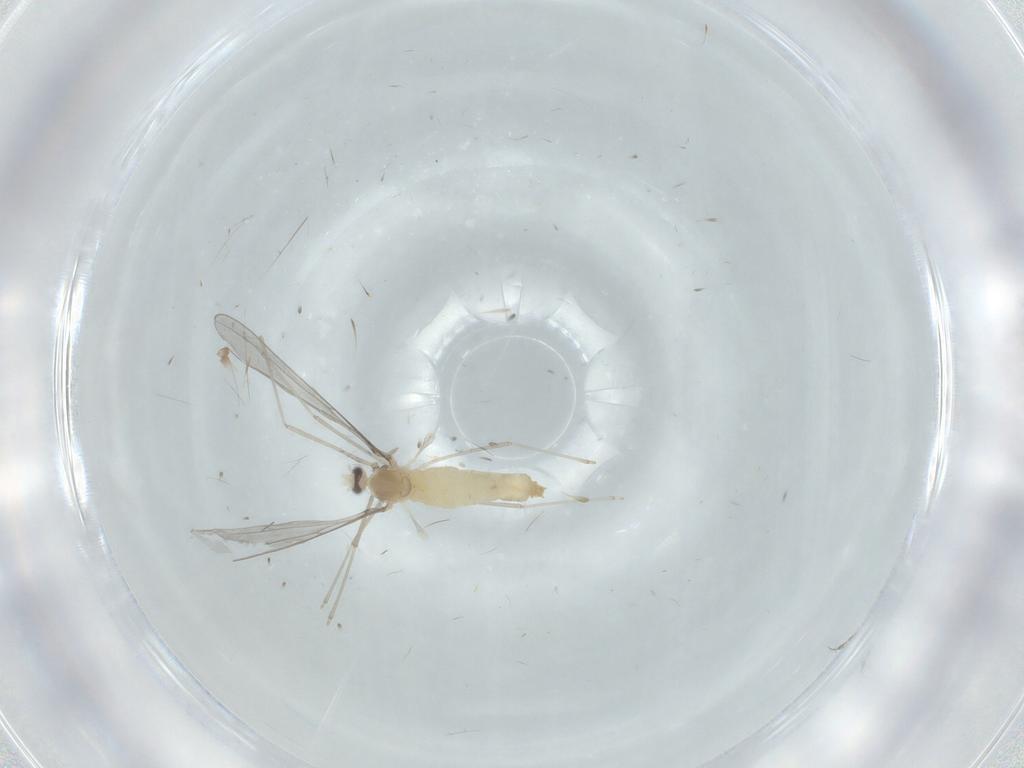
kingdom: Animalia
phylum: Arthropoda
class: Insecta
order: Diptera
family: Cecidomyiidae
